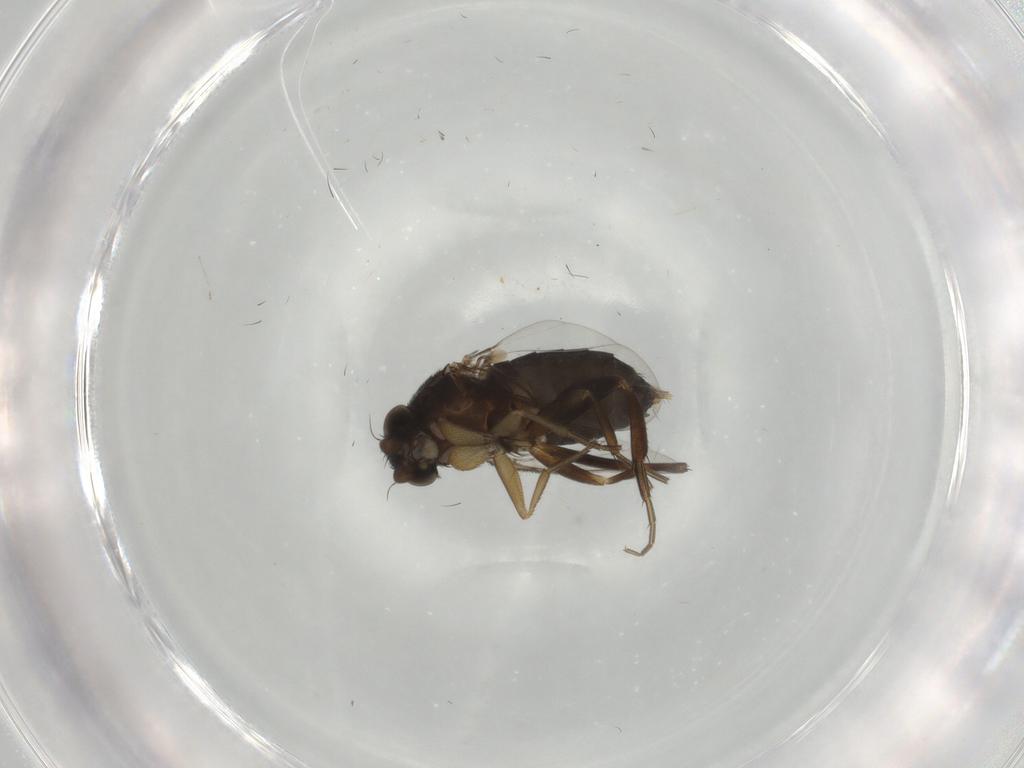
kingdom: Animalia
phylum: Arthropoda
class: Insecta
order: Diptera
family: Phoridae
